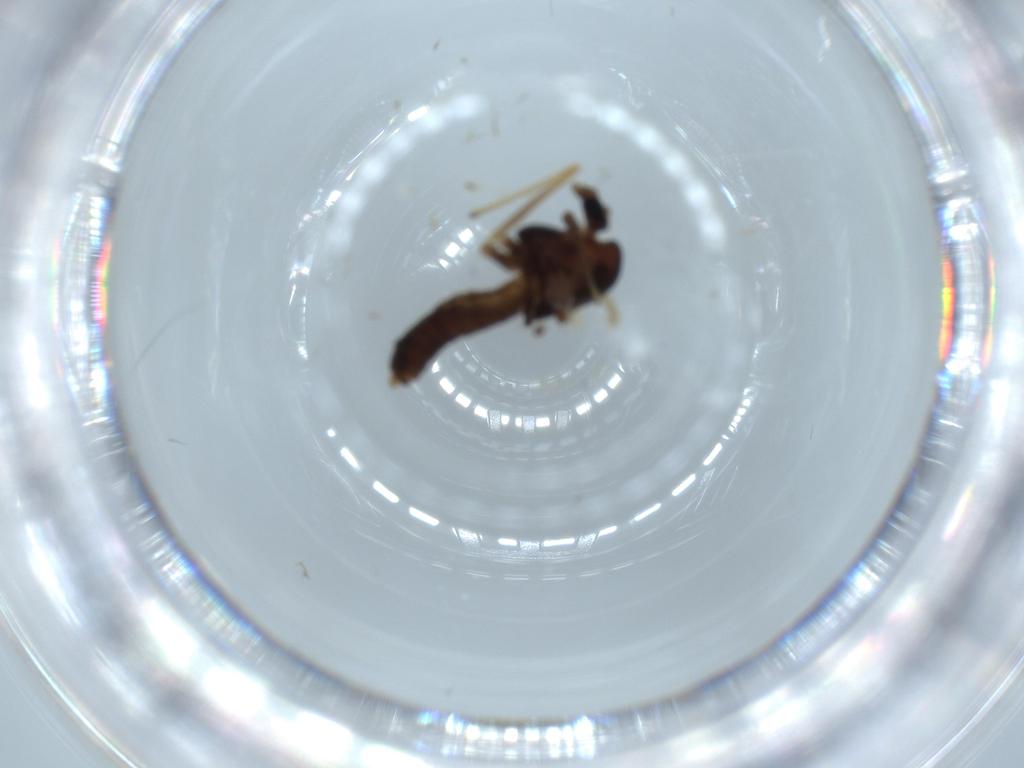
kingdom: Animalia
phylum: Arthropoda
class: Insecta
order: Diptera
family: Chironomidae
